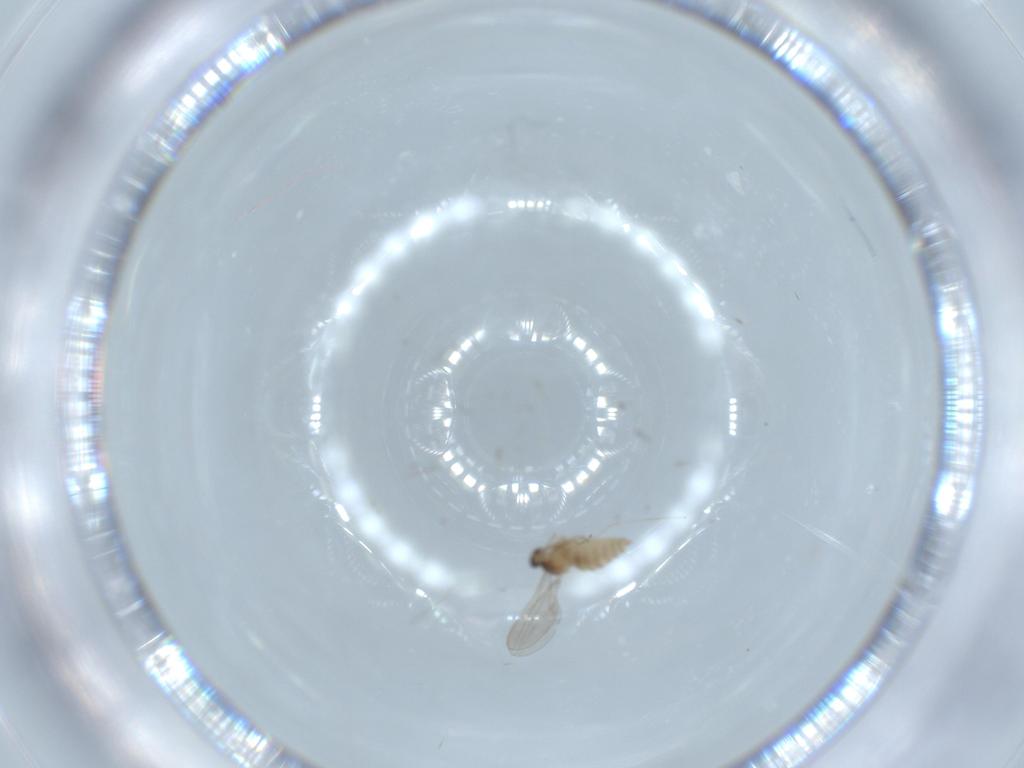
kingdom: Animalia
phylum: Arthropoda
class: Insecta
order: Diptera
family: Cecidomyiidae
